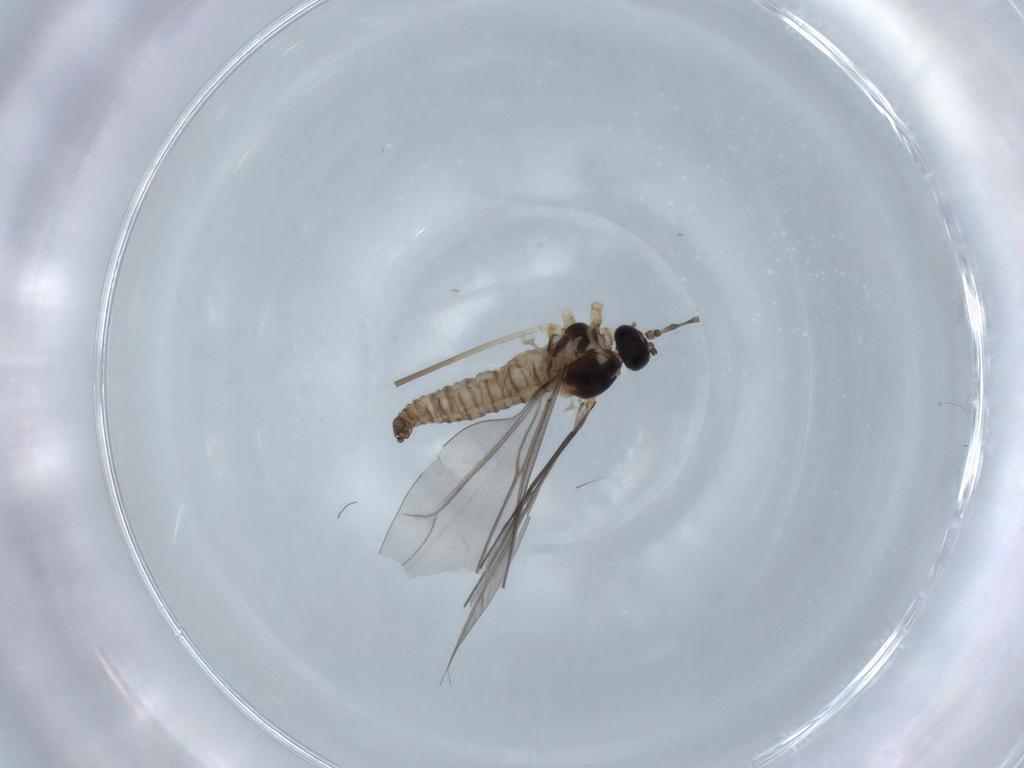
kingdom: Animalia
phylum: Arthropoda
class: Insecta
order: Diptera
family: Cecidomyiidae
